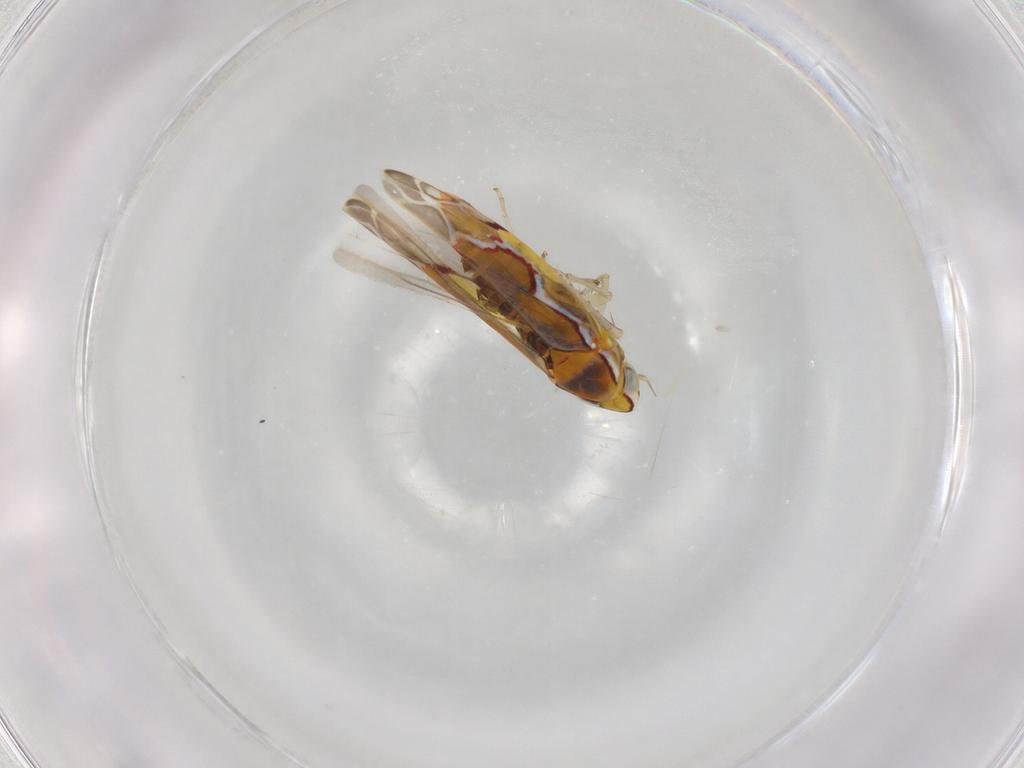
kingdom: Animalia
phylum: Arthropoda
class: Insecta
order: Hemiptera
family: Cicadellidae
